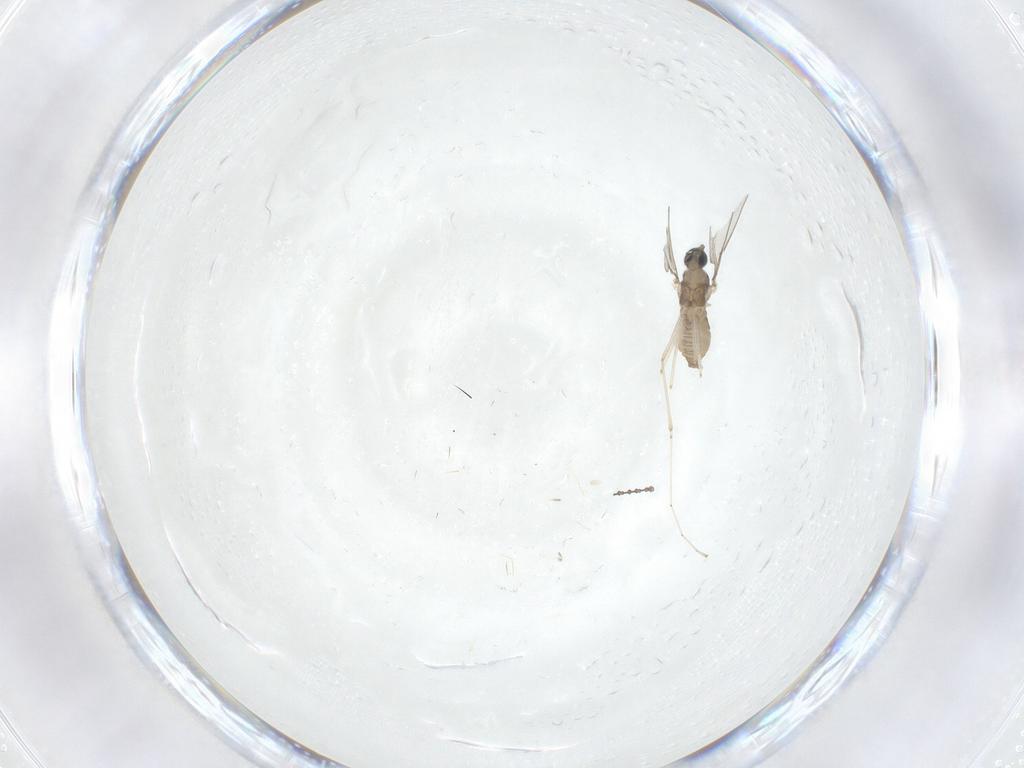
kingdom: Animalia
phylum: Arthropoda
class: Insecta
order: Diptera
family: Cecidomyiidae
